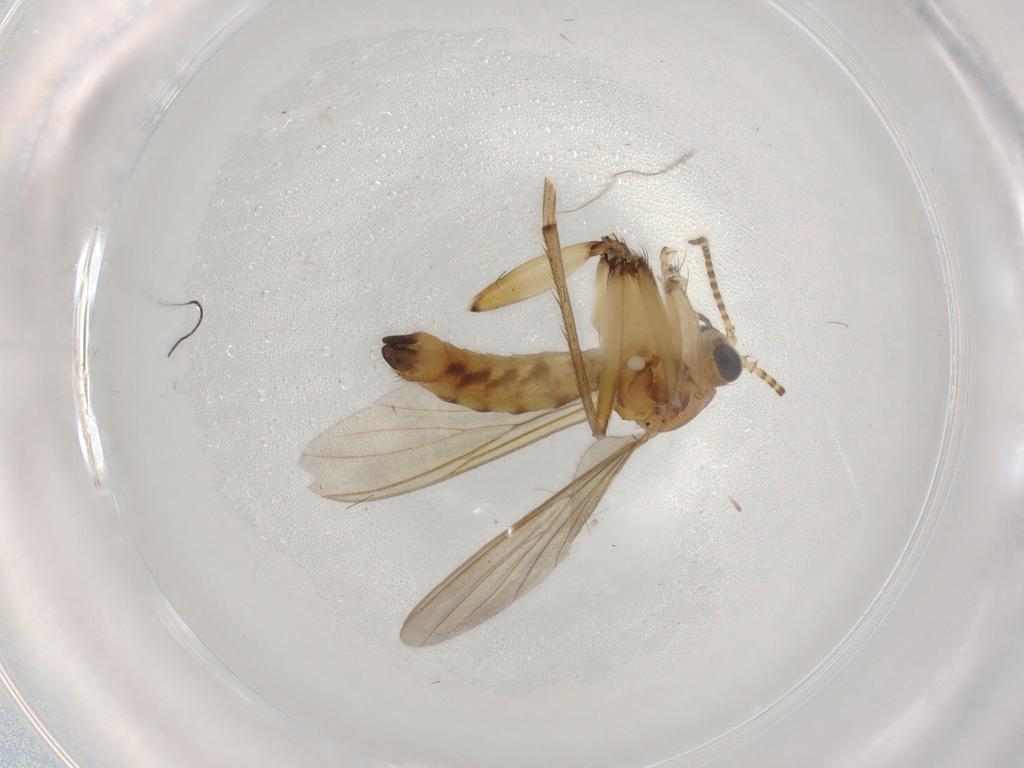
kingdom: Animalia
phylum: Arthropoda
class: Insecta
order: Diptera
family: Mycetophilidae
